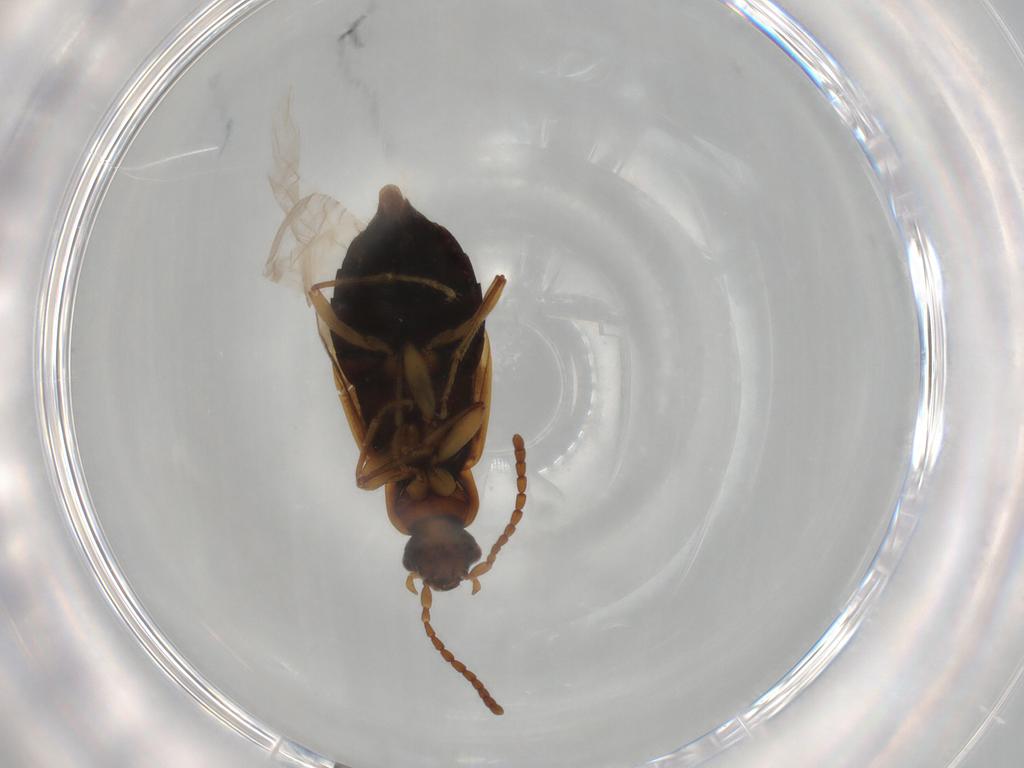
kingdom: Animalia
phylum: Arthropoda
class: Insecta
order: Coleoptera
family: Staphylinidae
